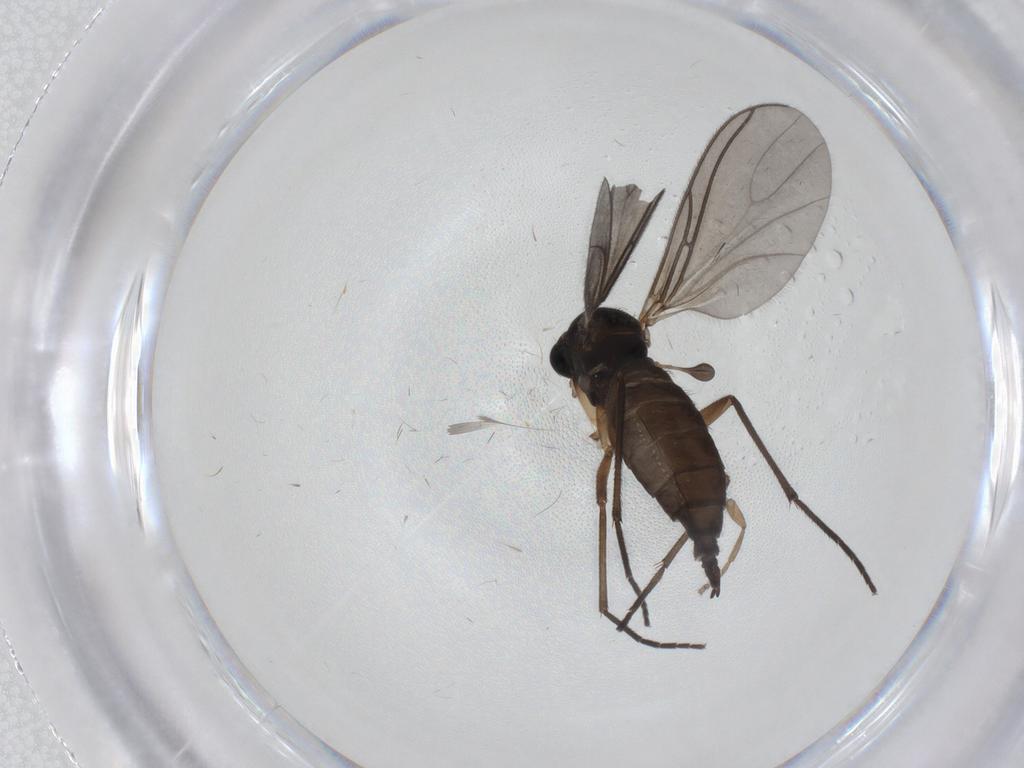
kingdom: Animalia
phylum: Arthropoda
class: Insecta
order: Diptera
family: Sciaridae
